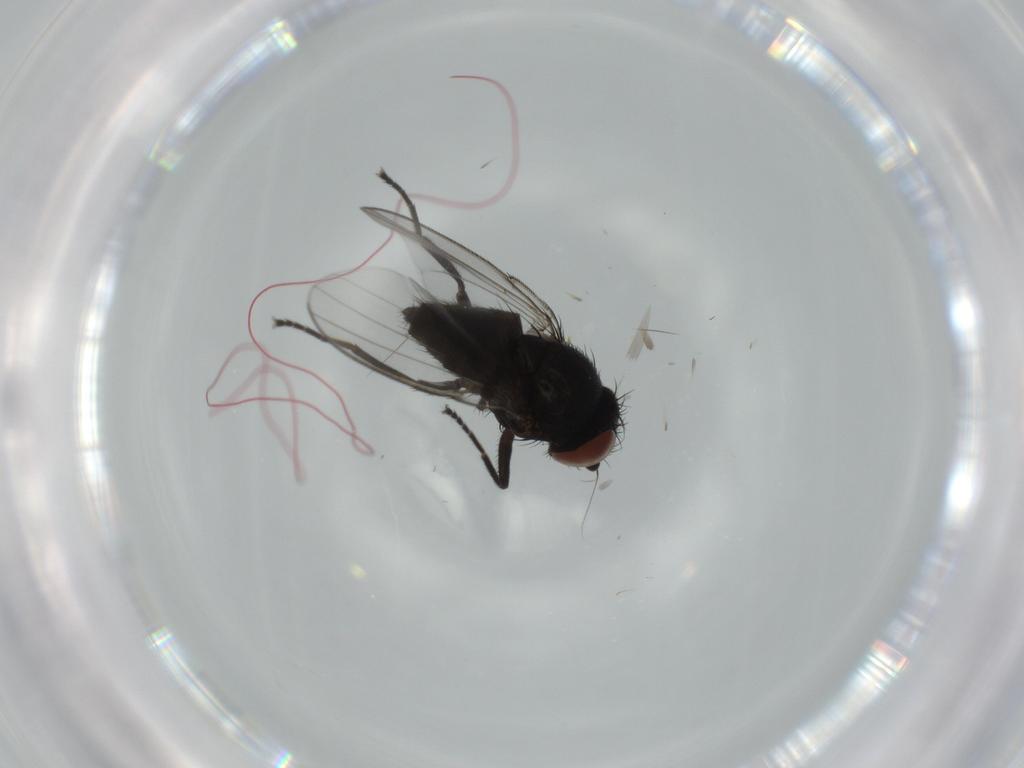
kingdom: Animalia
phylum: Arthropoda
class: Insecta
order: Diptera
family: Milichiidae
